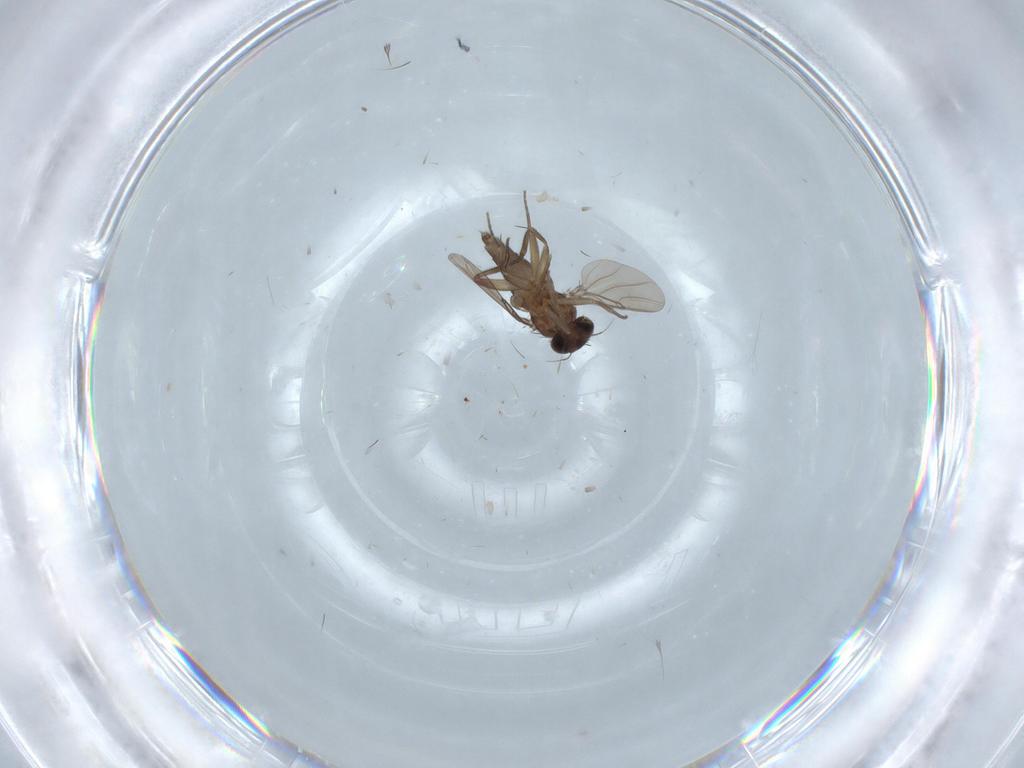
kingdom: Animalia
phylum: Arthropoda
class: Insecta
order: Diptera
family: Phoridae
